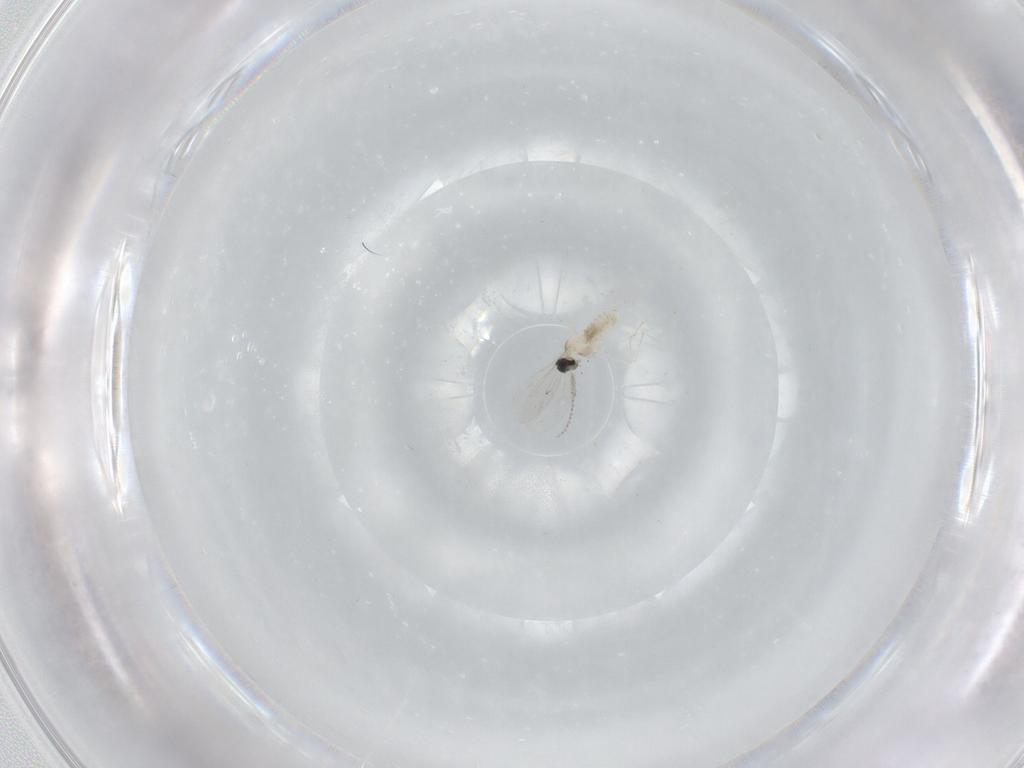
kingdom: Animalia
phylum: Arthropoda
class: Insecta
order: Diptera
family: Cecidomyiidae
